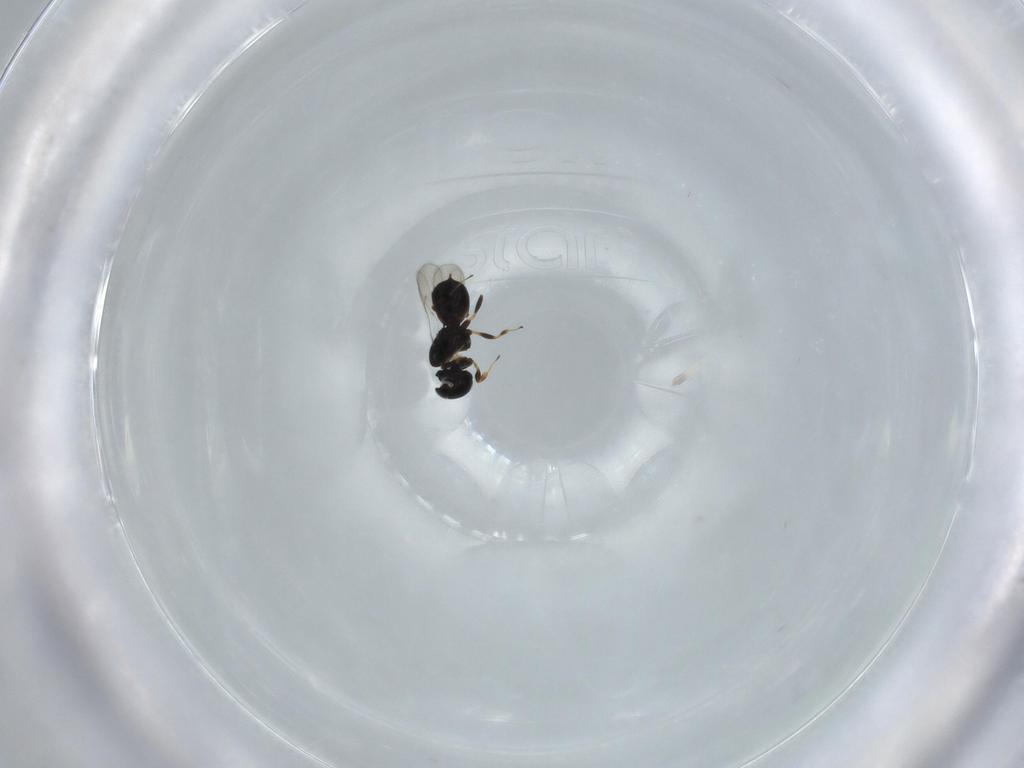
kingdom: Animalia
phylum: Arthropoda
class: Insecta
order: Hymenoptera
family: Scelionidae
